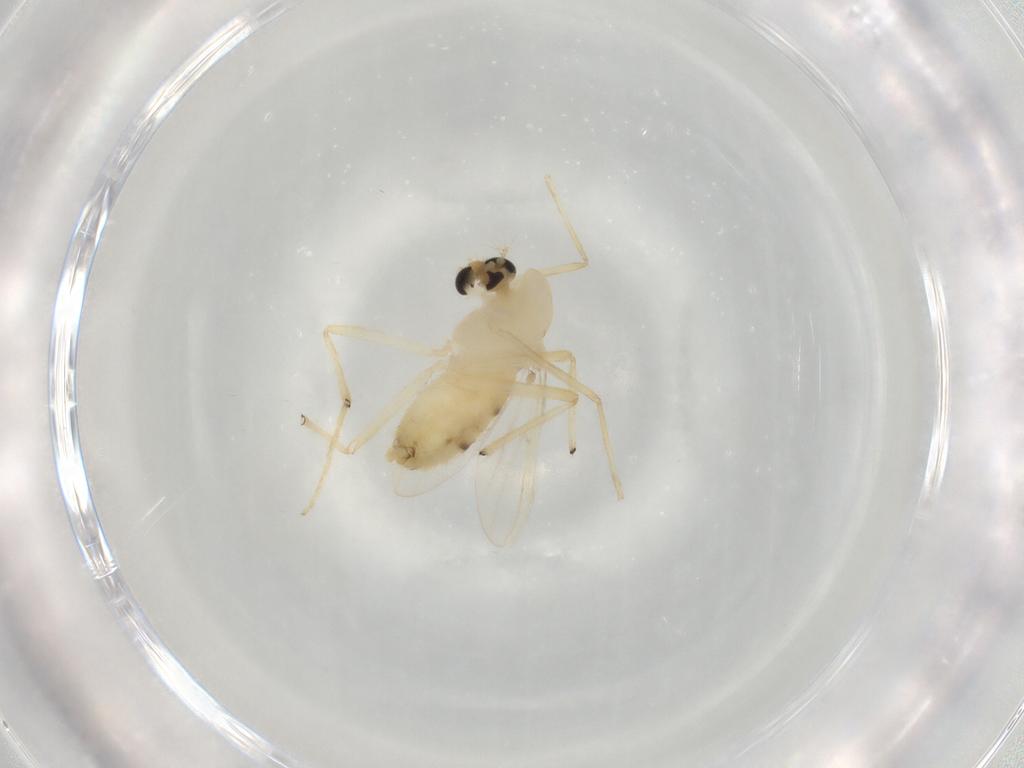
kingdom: Animalia
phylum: Arthropoda
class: Insecta
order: Diptera
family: Chironomidae
